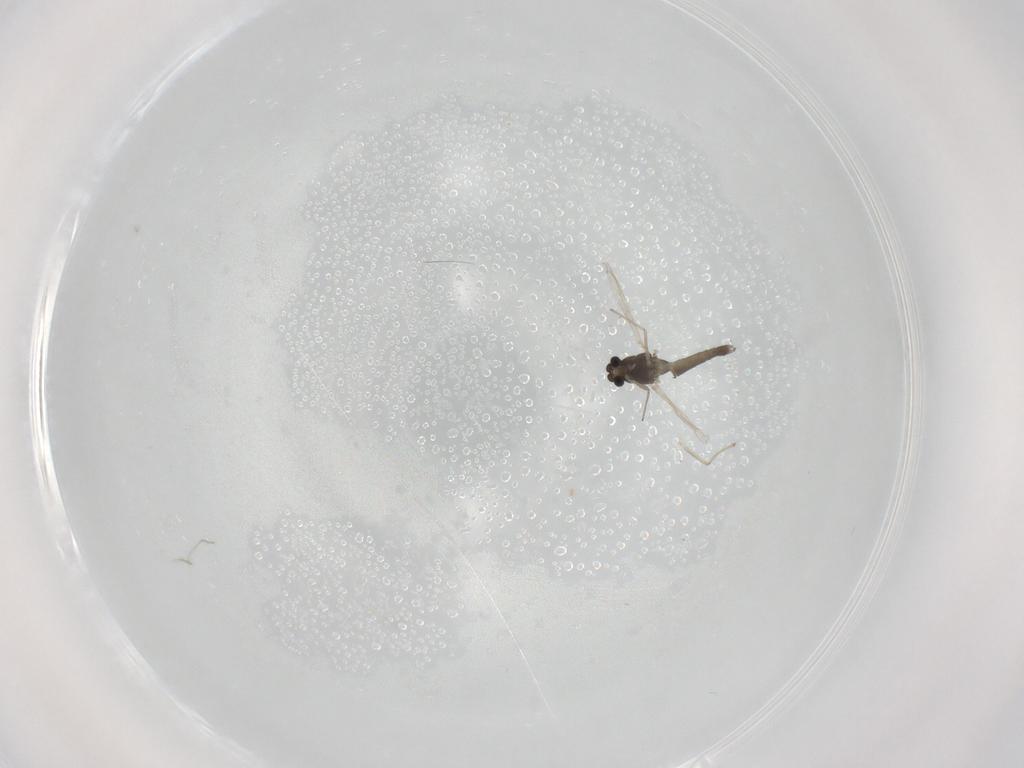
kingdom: Animalia
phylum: Arthropoda
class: Insecta
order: Diptera
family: Chironomidae
